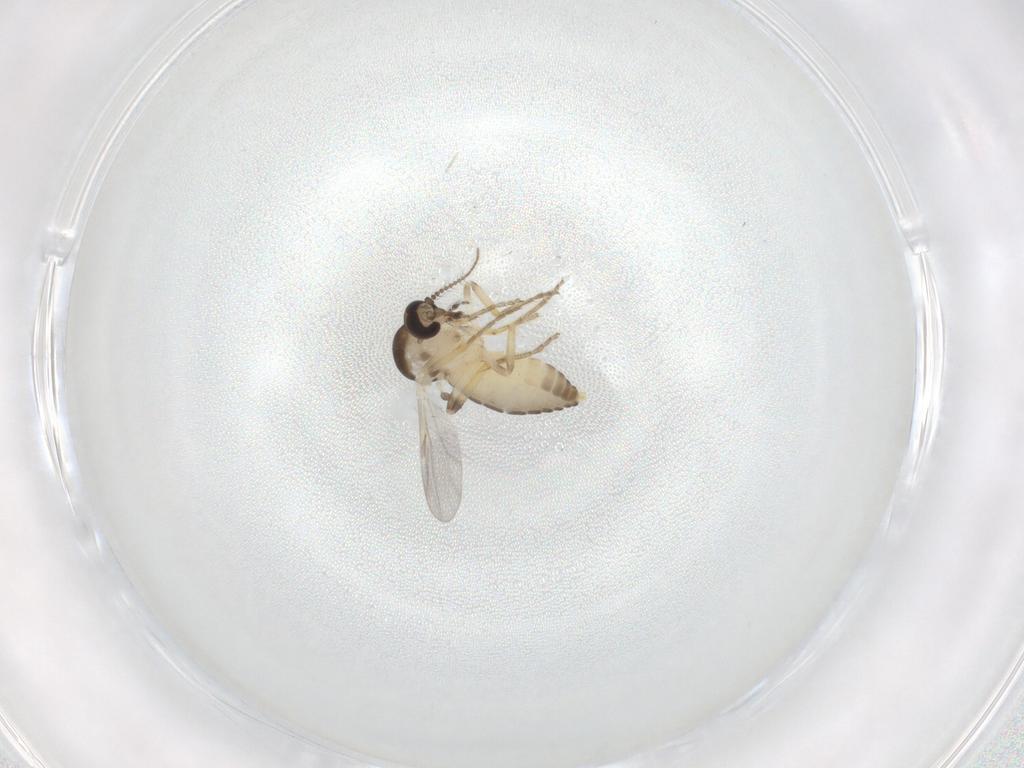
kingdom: Animalia
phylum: Arthropoda
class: Insecta
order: Diptera
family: Ceratopogonidae
